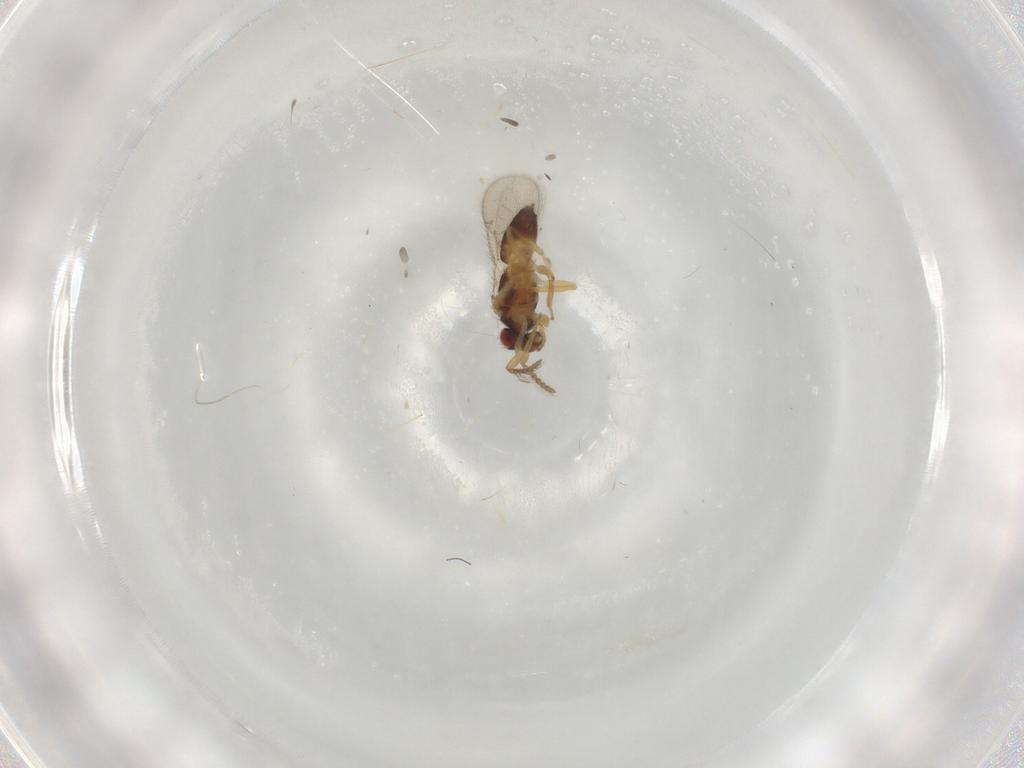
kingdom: Animalia
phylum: Arthropoda
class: Insecta
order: Hymenoptera
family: Eulophidae
